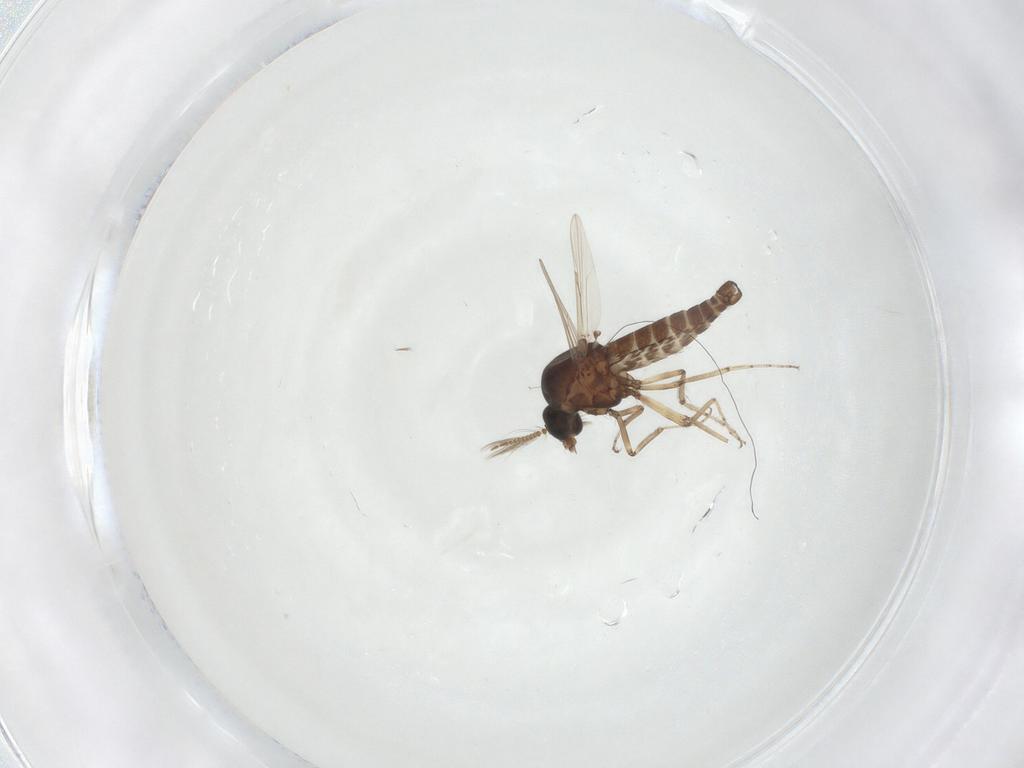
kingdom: Animalia
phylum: Arthropoda
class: Insecta
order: Diptera
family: Ceratopogonidae
